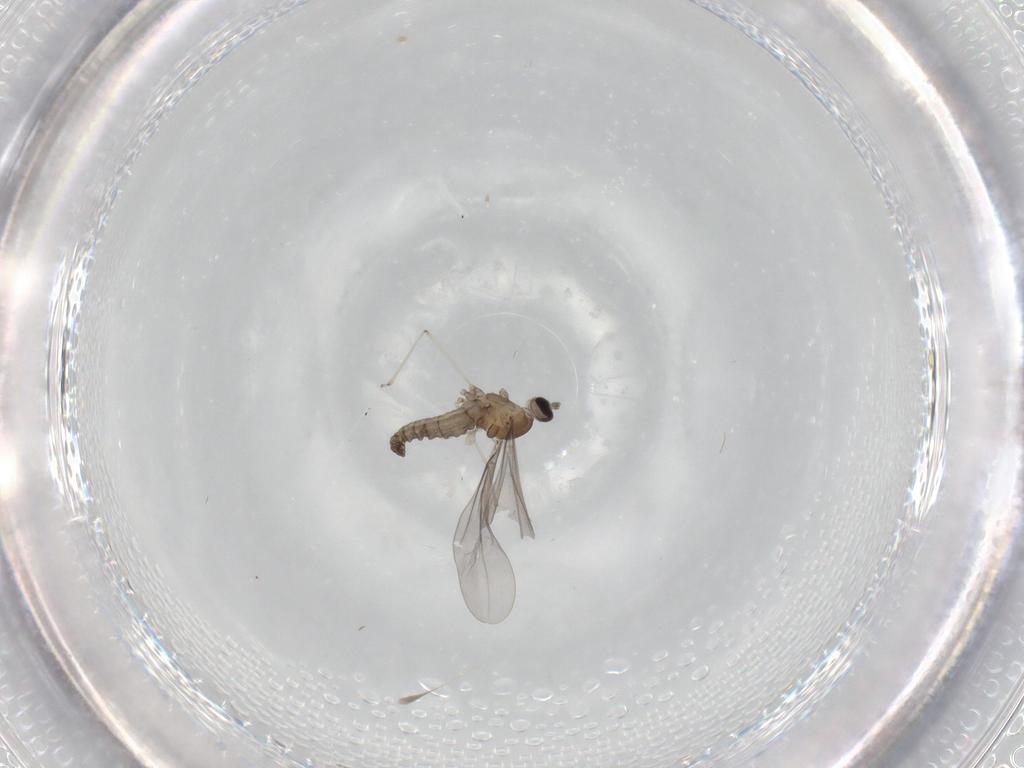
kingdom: Animalia
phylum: Arthropoda
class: Insecta
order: Diptera
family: Cecidomyiidae
